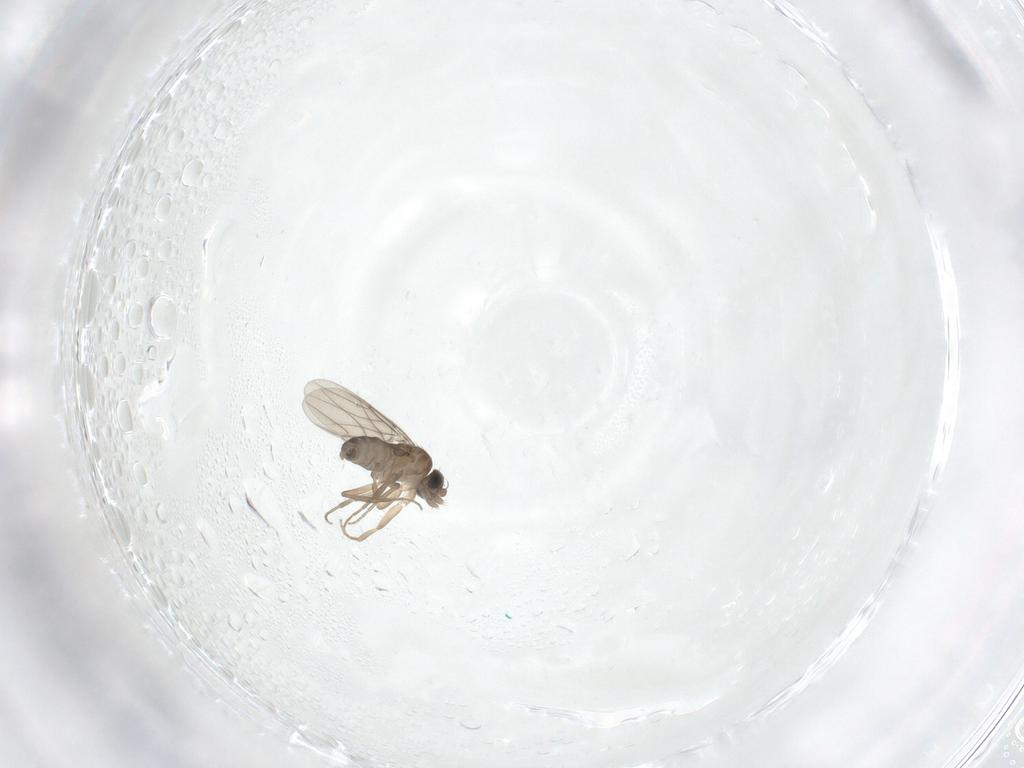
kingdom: Animalia
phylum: Arthropoda
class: Insecta
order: Diptera
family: Phoridae
